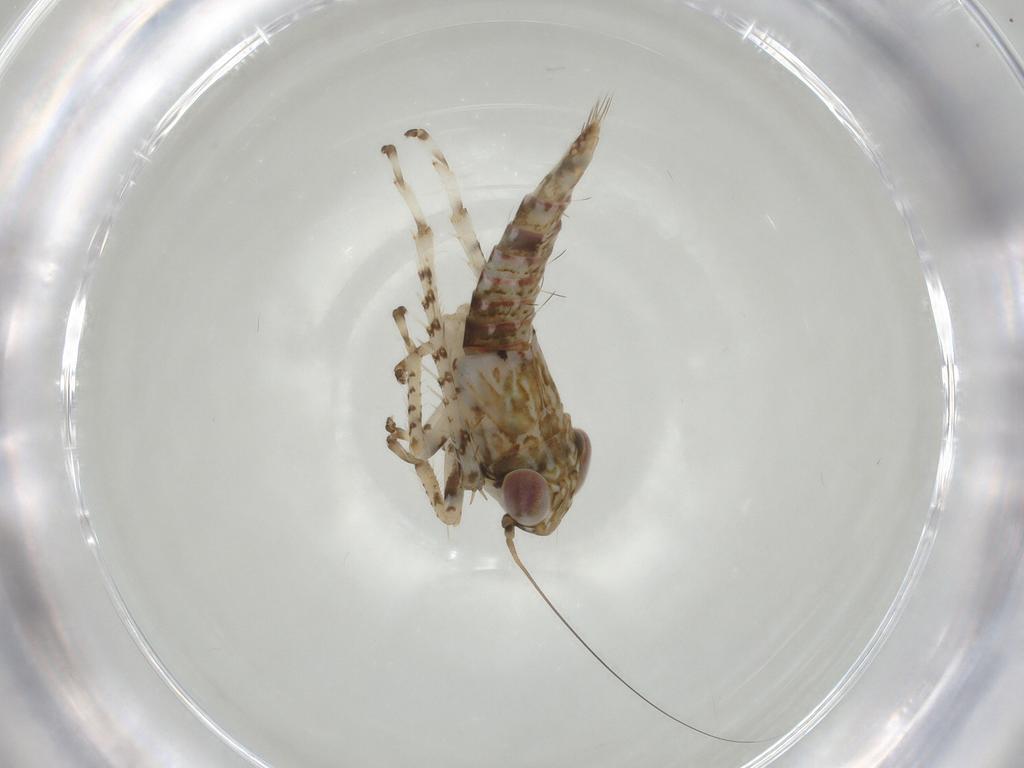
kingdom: Animalia
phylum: Arthropoda
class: Insecta
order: Hemiptera
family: Cicadellidae
